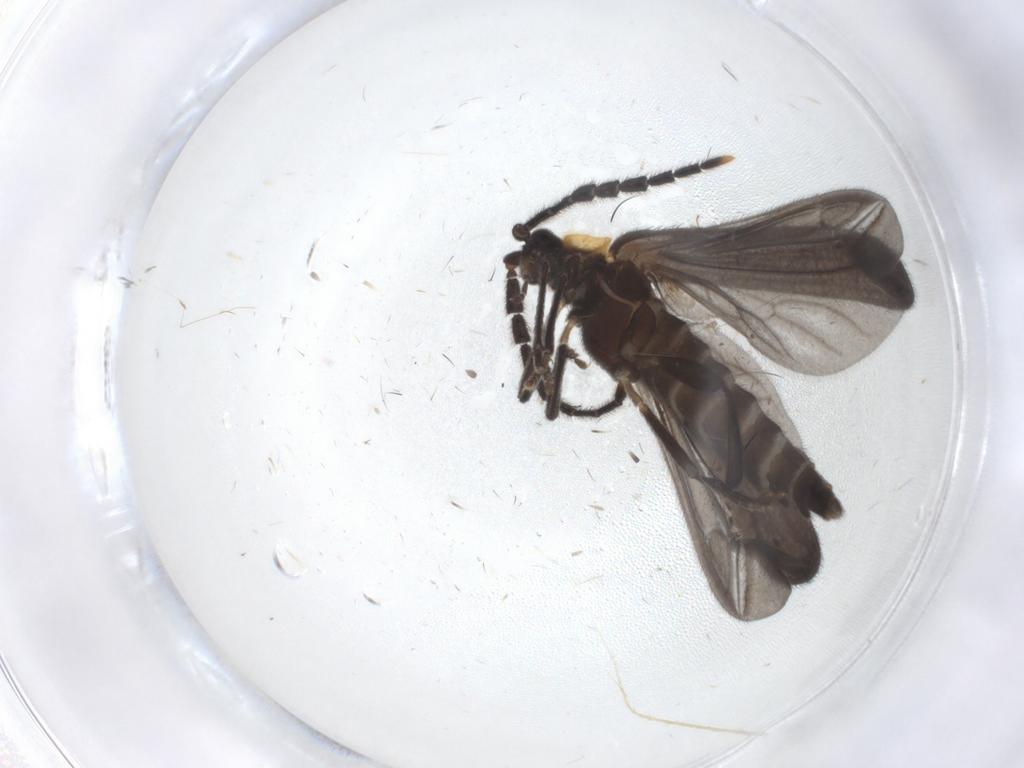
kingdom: Animalia
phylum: Arthropoda
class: Insecta
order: Coleoptera
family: Lycidae
